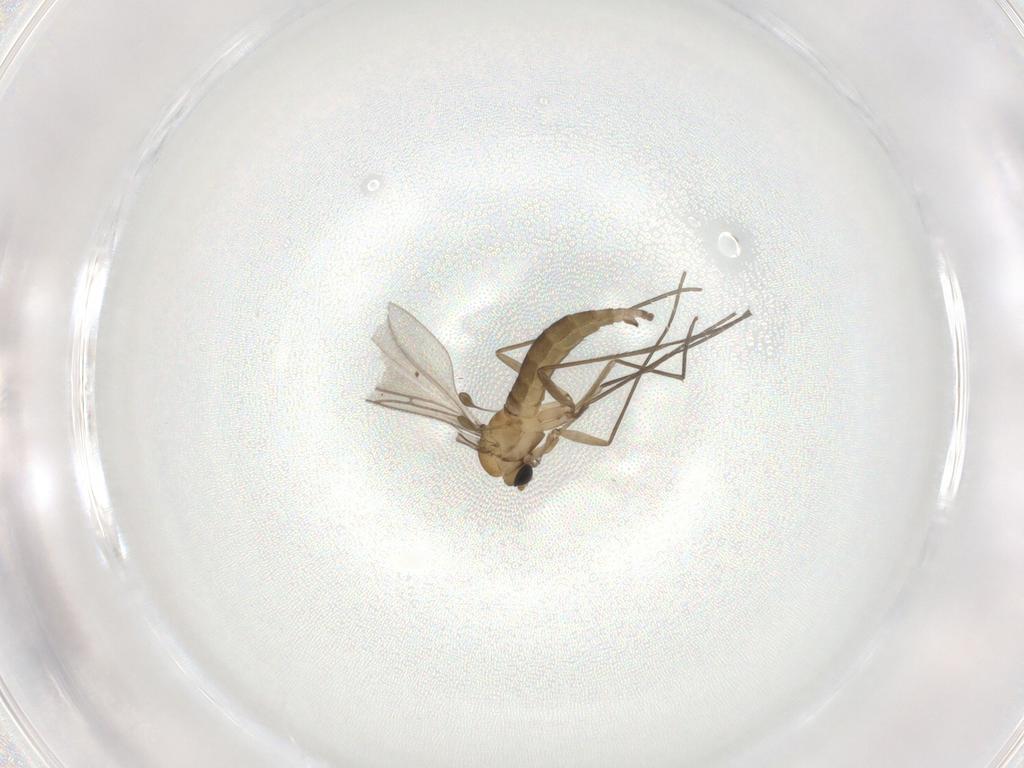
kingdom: Animalia
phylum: Arthropoda
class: Insecta
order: Diptera
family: Sciaridae
